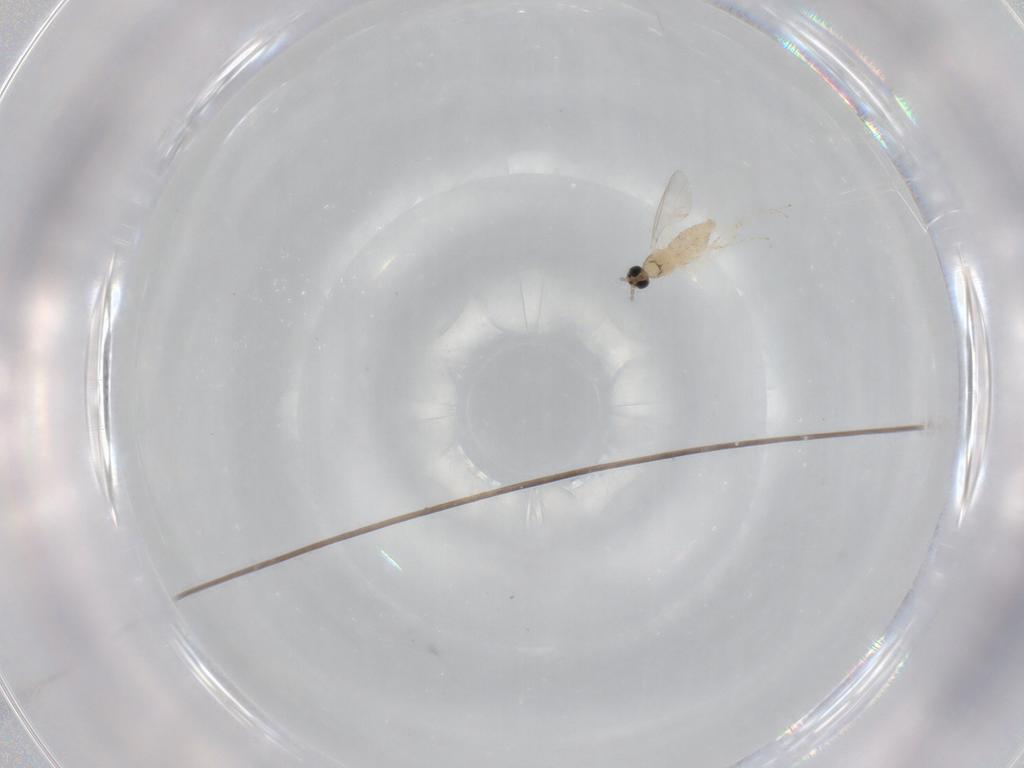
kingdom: Animalia
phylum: Arthropoda
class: Insecta
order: Diptera
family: Cecidomyiidae
